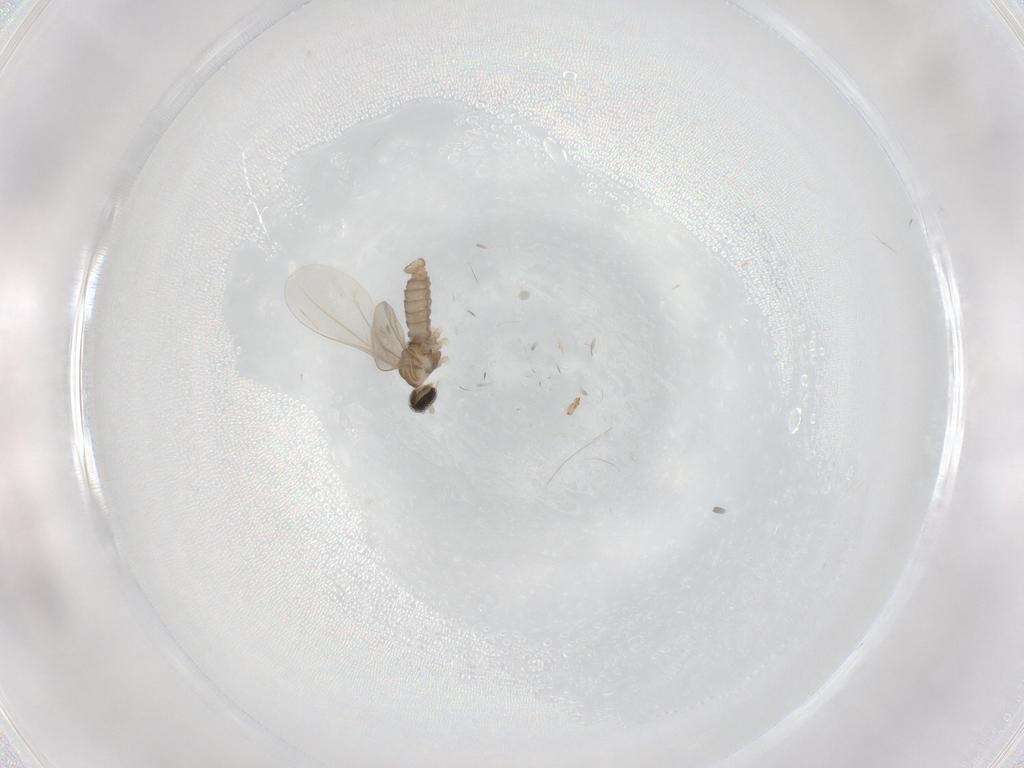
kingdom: Animalia
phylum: Arthropoda
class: Insecta
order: Diptera
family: Cecidomyiidae
